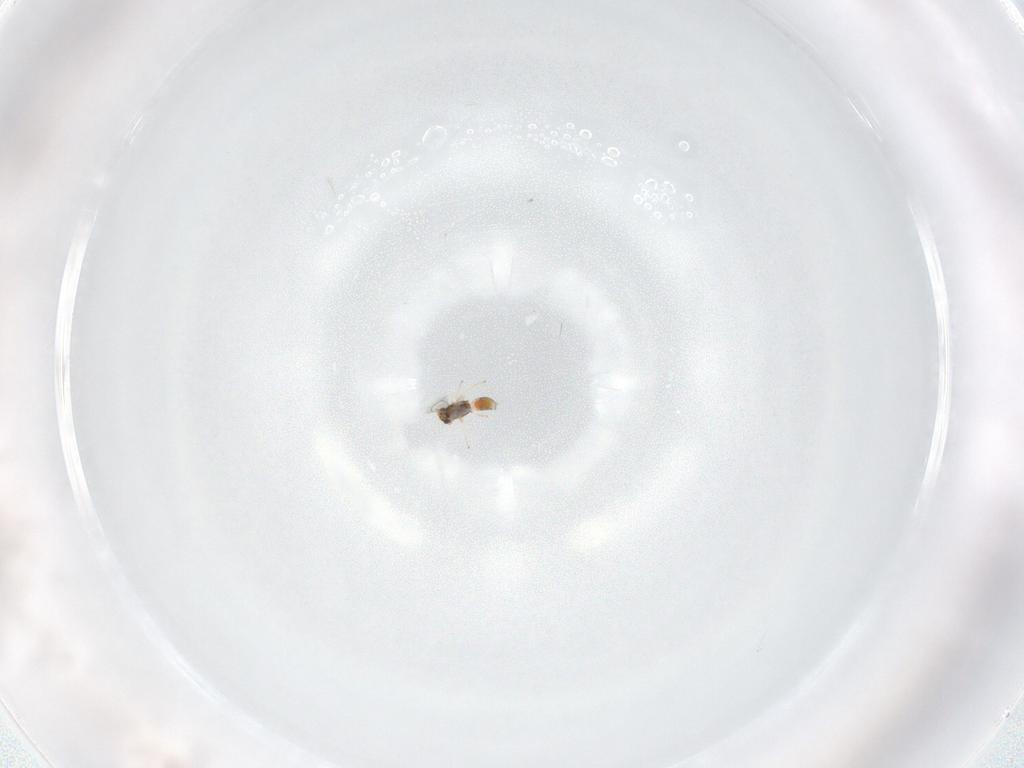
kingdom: Animalia
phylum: Arthropoda
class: Insecta
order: Hymenoptera
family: Eulophidae
